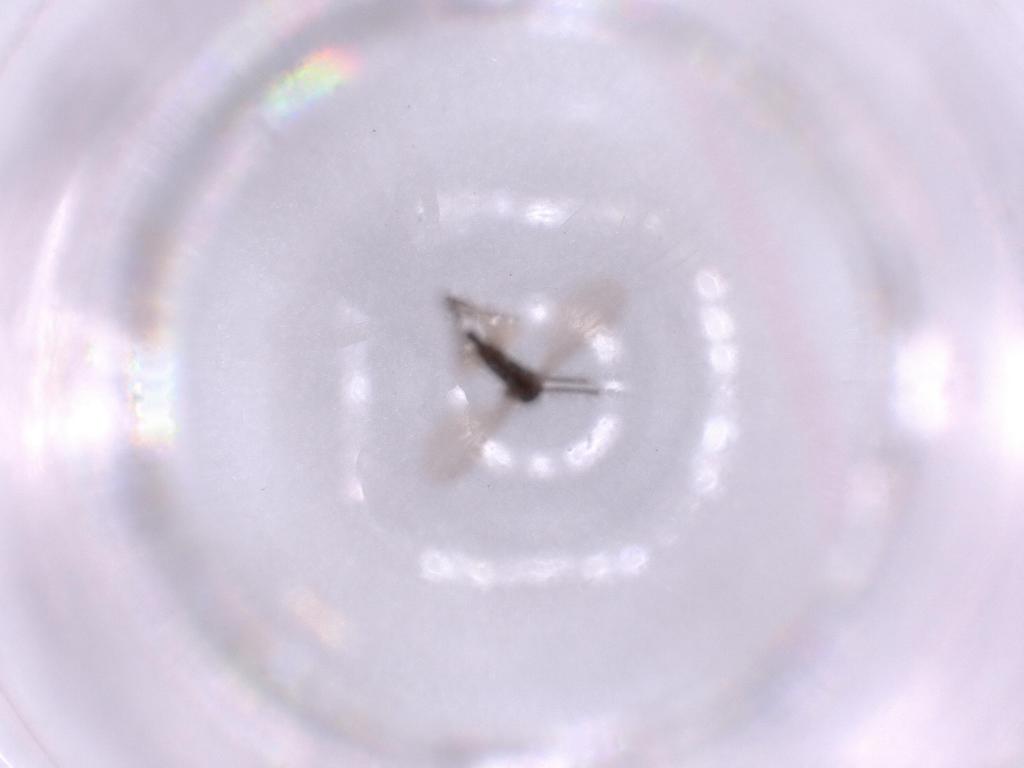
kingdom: Animalia
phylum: Arthropoda
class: Insecta
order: Diptera
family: Sciaridae
